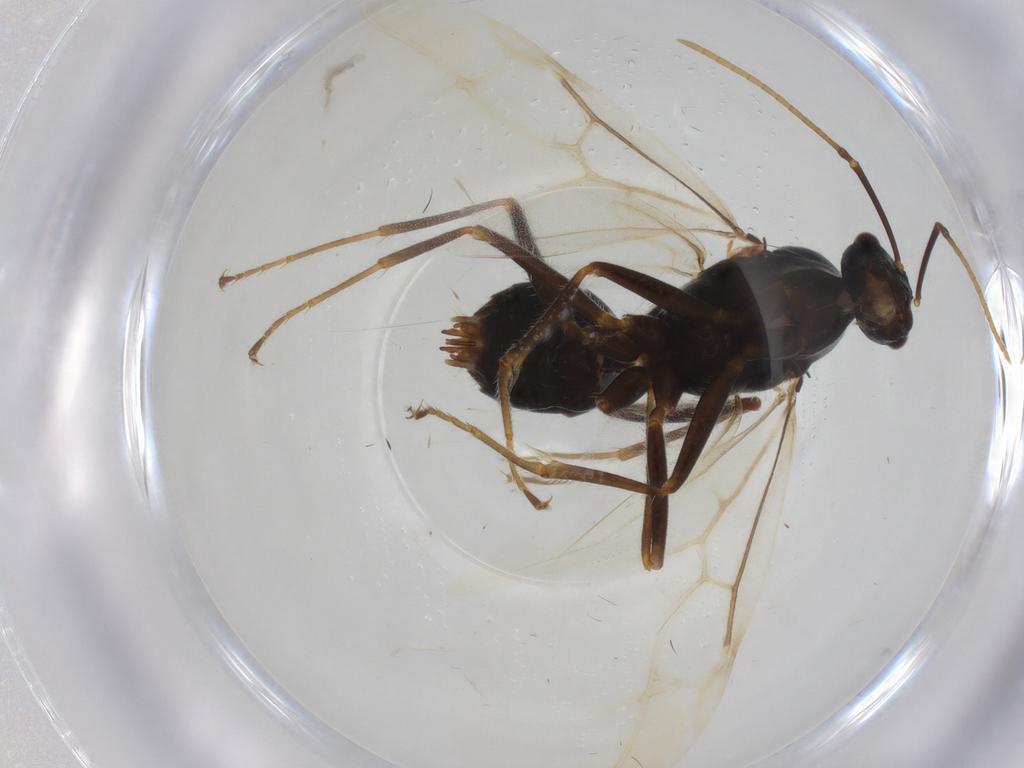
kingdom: Animalia
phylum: Arthropoda
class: Insecta
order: Hymenoptera
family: Formicidae
